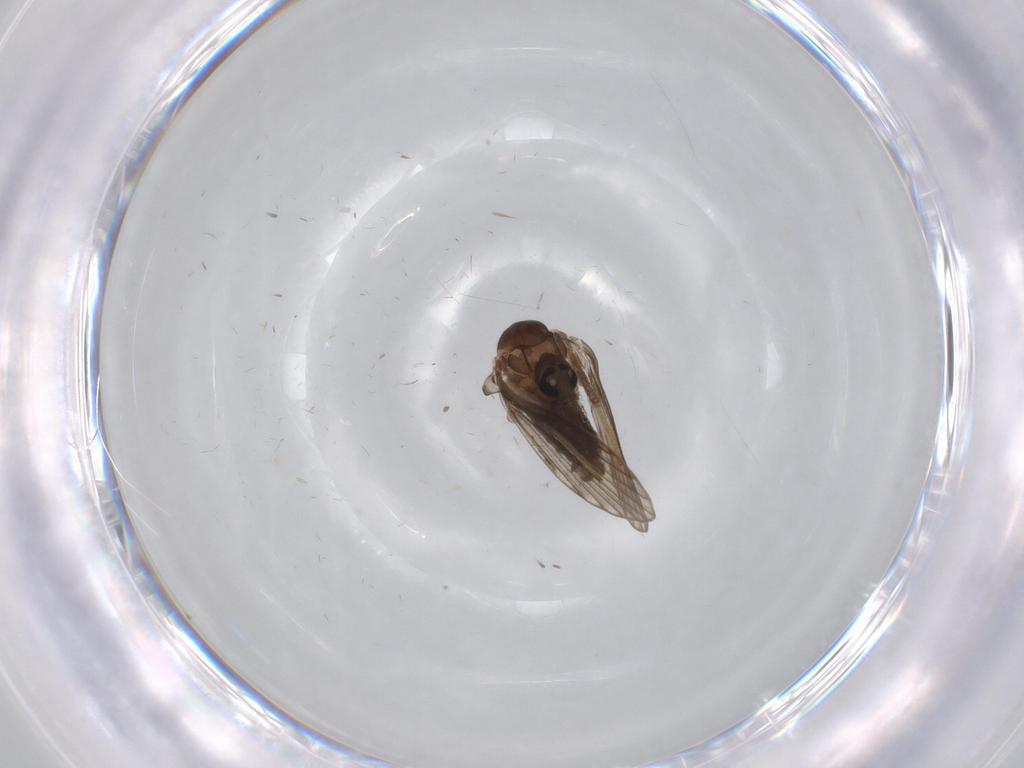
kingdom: Animalia
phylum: Arthropoda
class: Insecta
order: Diptera
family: Psychodidae
